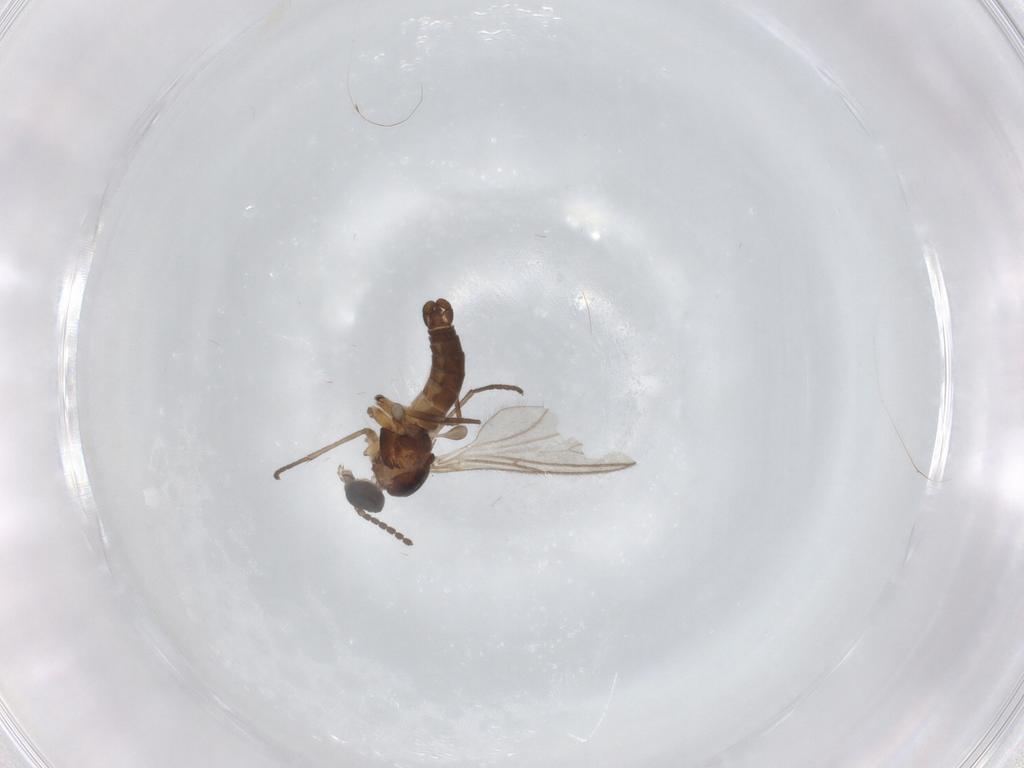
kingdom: Animalia
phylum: Arthropoda
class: Insecta
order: Diptera
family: Sciaridae
